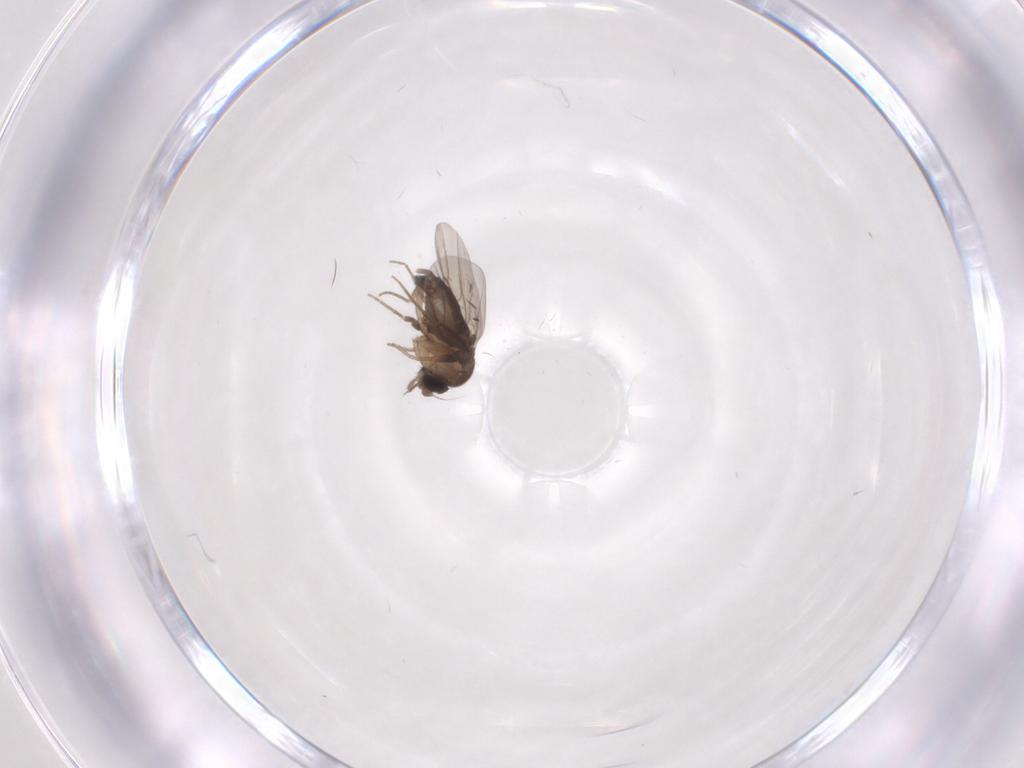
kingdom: Animalia
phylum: Arthropoda
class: Insecta
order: Diptera
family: Phoridae
